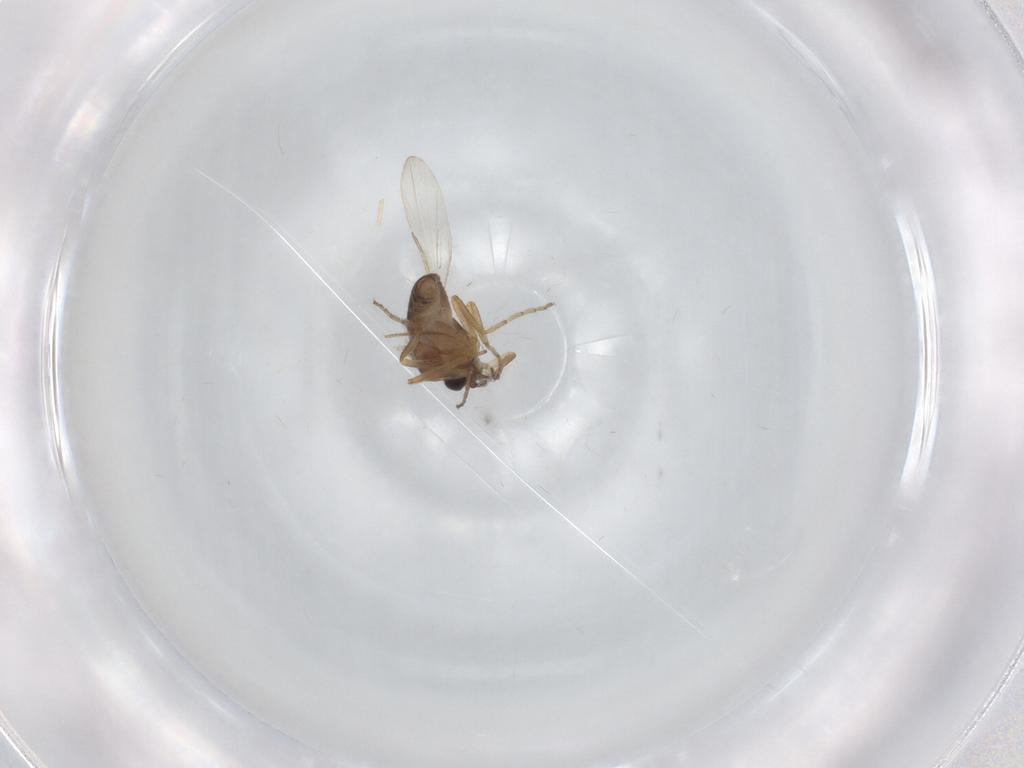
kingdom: Animalia
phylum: Arthropoda
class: Insecta
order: Diptera
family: Ceratopogonidae
